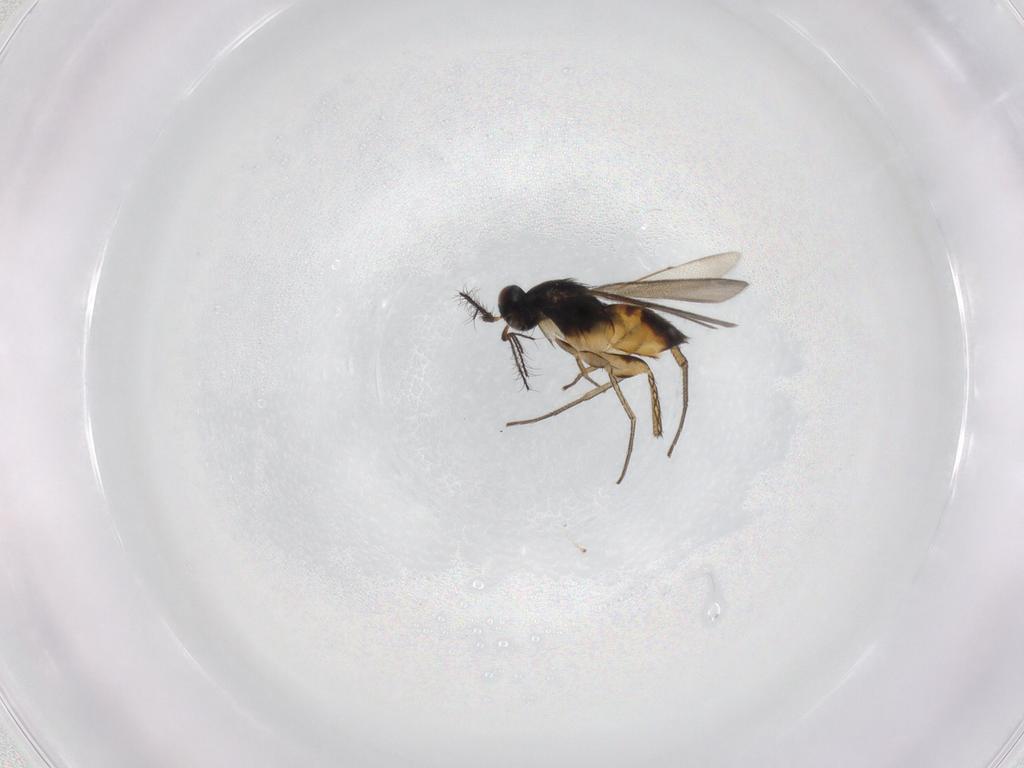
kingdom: Animalia
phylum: Arthropoda
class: Insecta
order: Hymenoptera
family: Eulophidae
